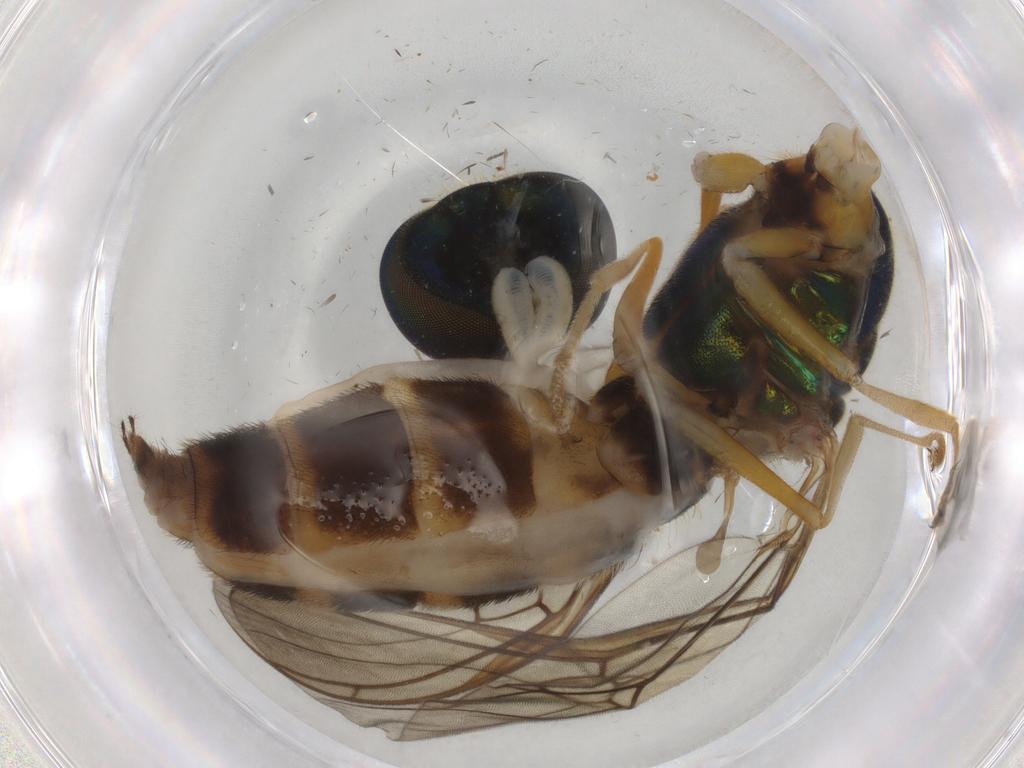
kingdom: Animalia
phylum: Arthropoda
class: Insecta
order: Diptera
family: Phoridae
